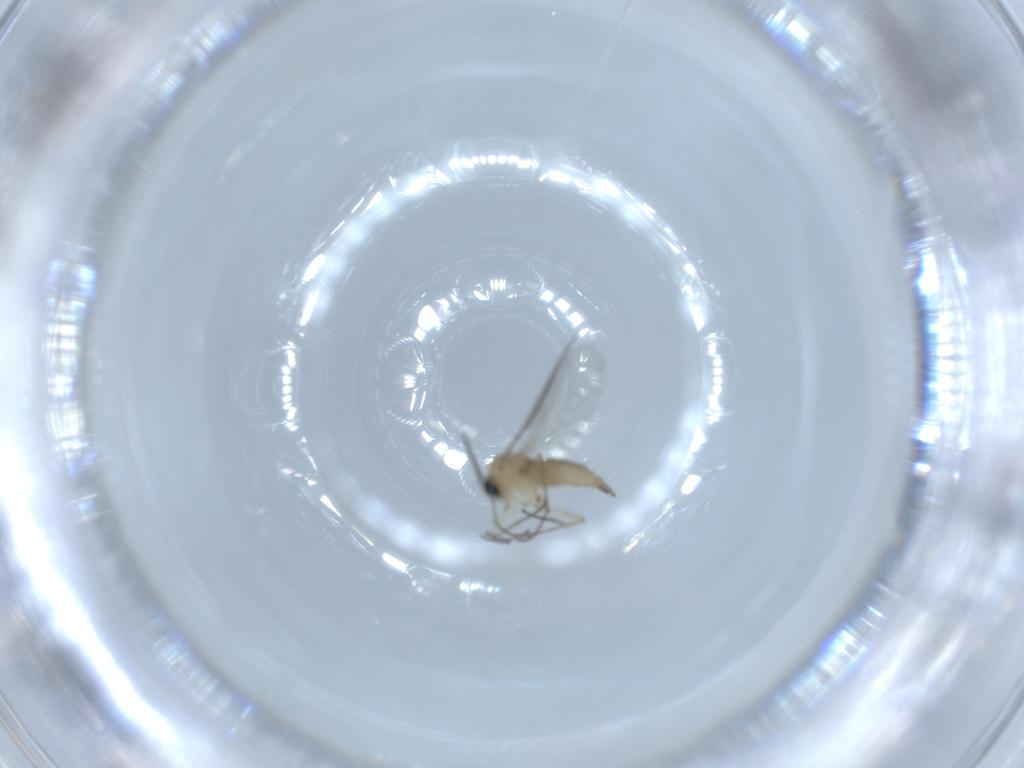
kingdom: Animalia
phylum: Arthropoda
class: Insecta
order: Diptera
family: Sciaridae
